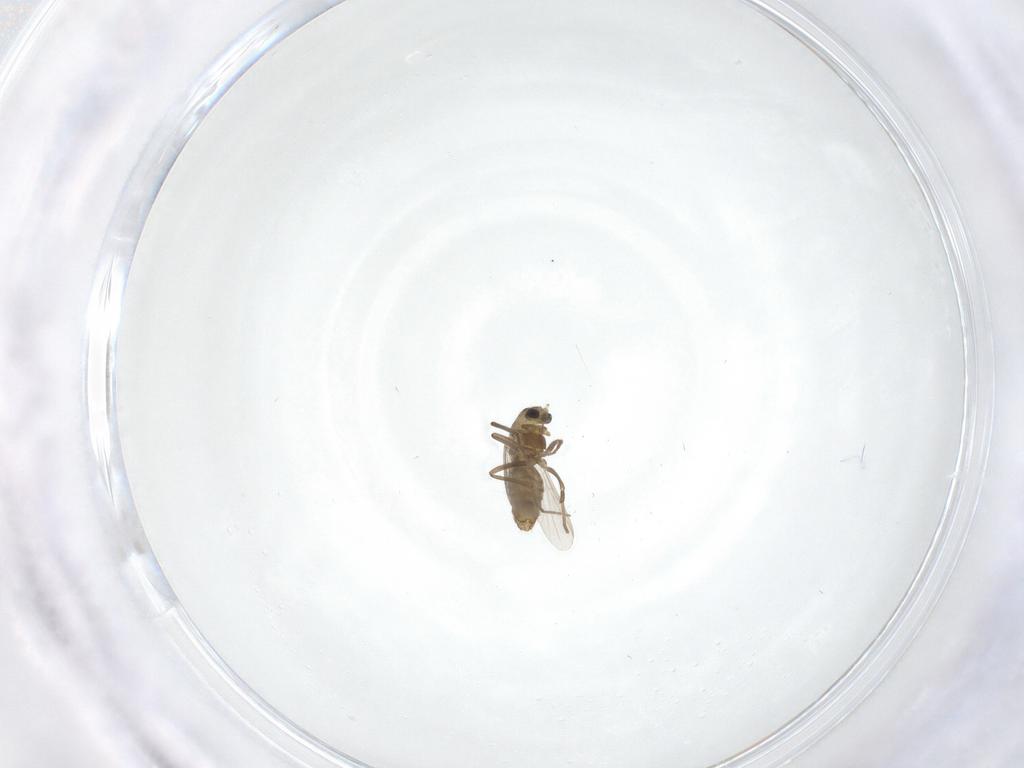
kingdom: Animalia
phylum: Arthropoda
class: Insecta
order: Diptera
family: Chironomidae
